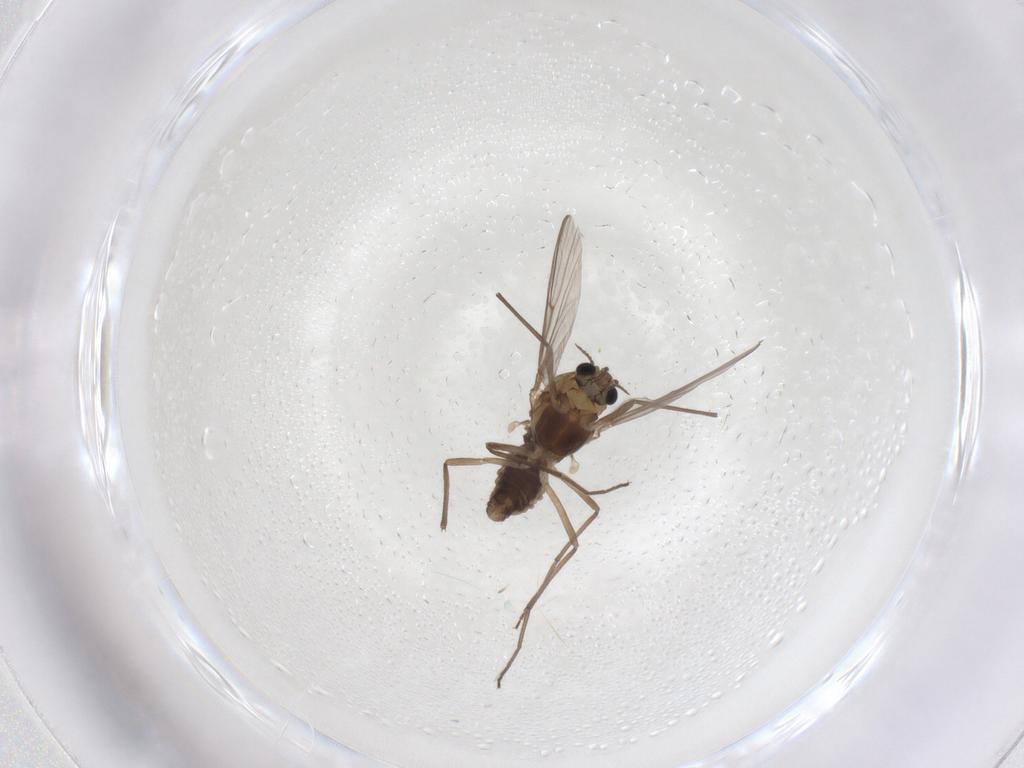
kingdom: Animalia
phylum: Arthropoda
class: Insecta
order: Diptera
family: Chironomidae
